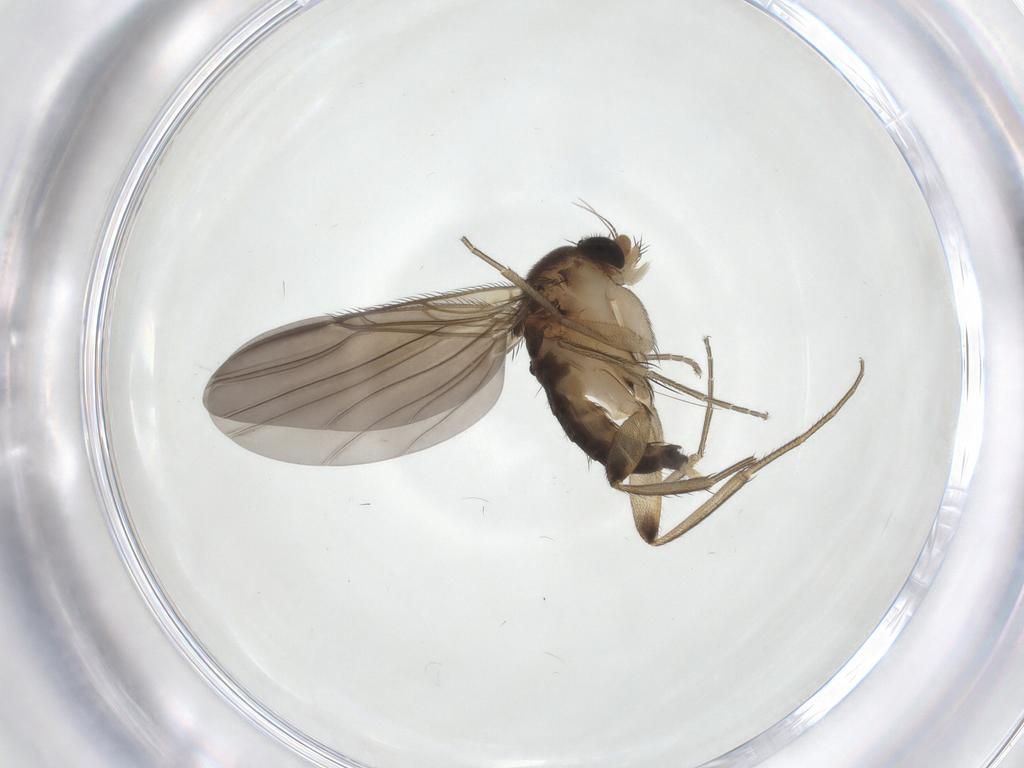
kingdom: Animalia
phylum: Arthropoda
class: Insecta
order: Diptera
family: Phoridae
